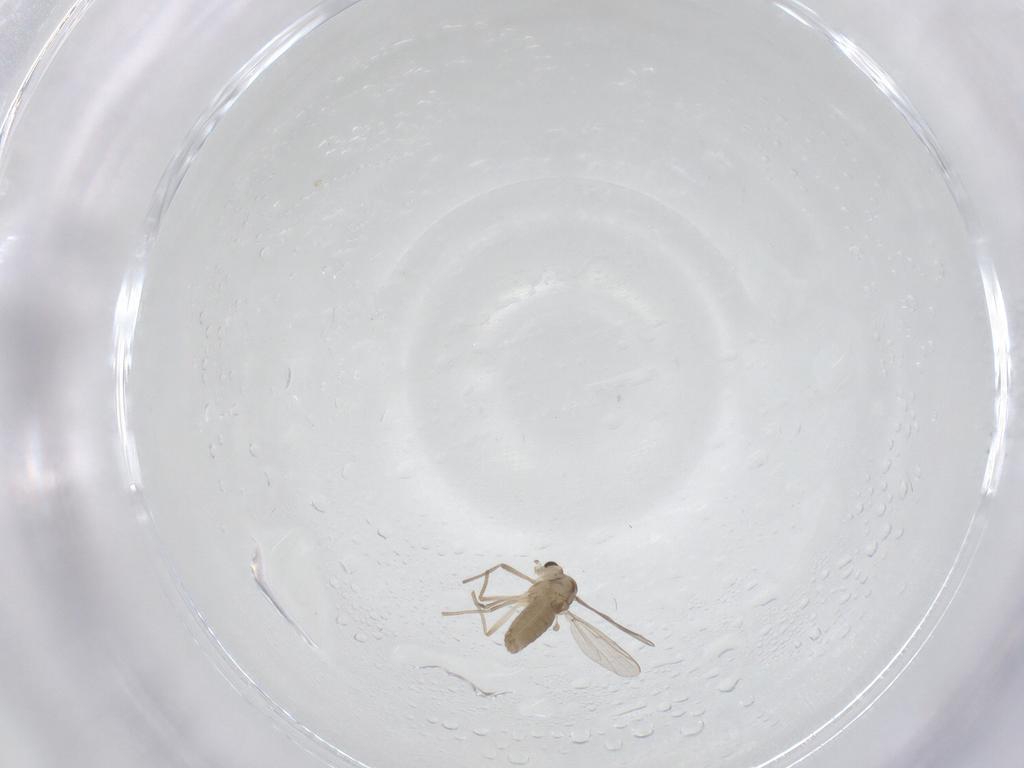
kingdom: Animalia
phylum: Arthropoda
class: Insecta
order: Diptera
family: Chironomidae
